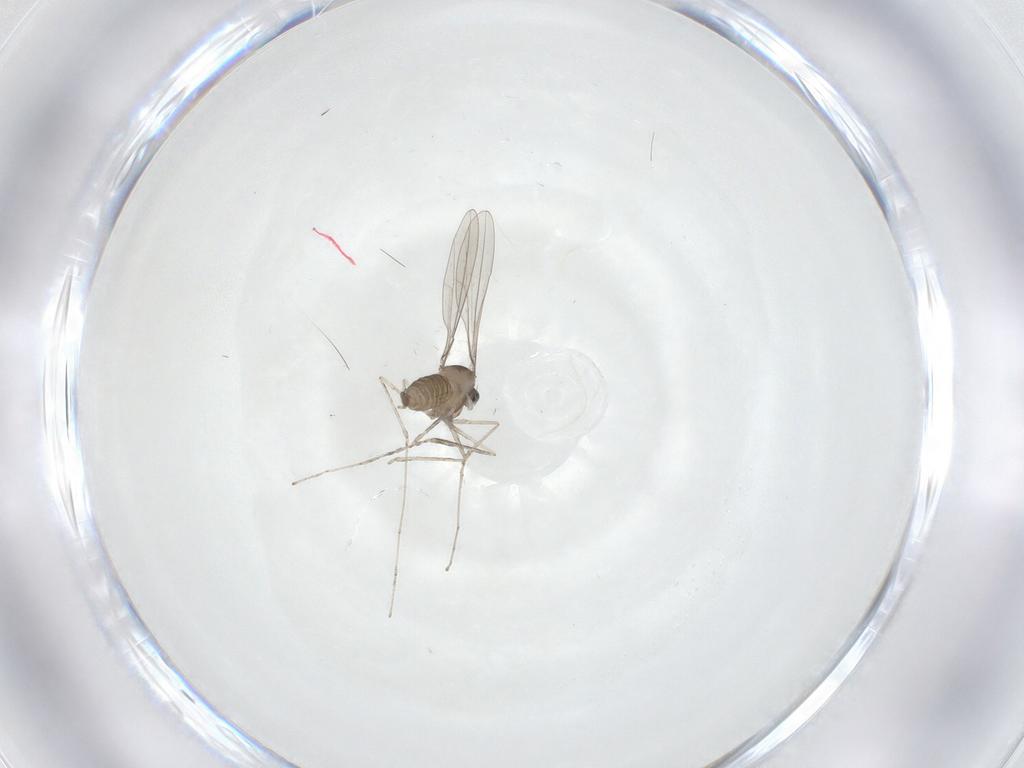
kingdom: Animalia
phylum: Arthropoda
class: Insecta
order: Diptera
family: Cecidomyiidae
